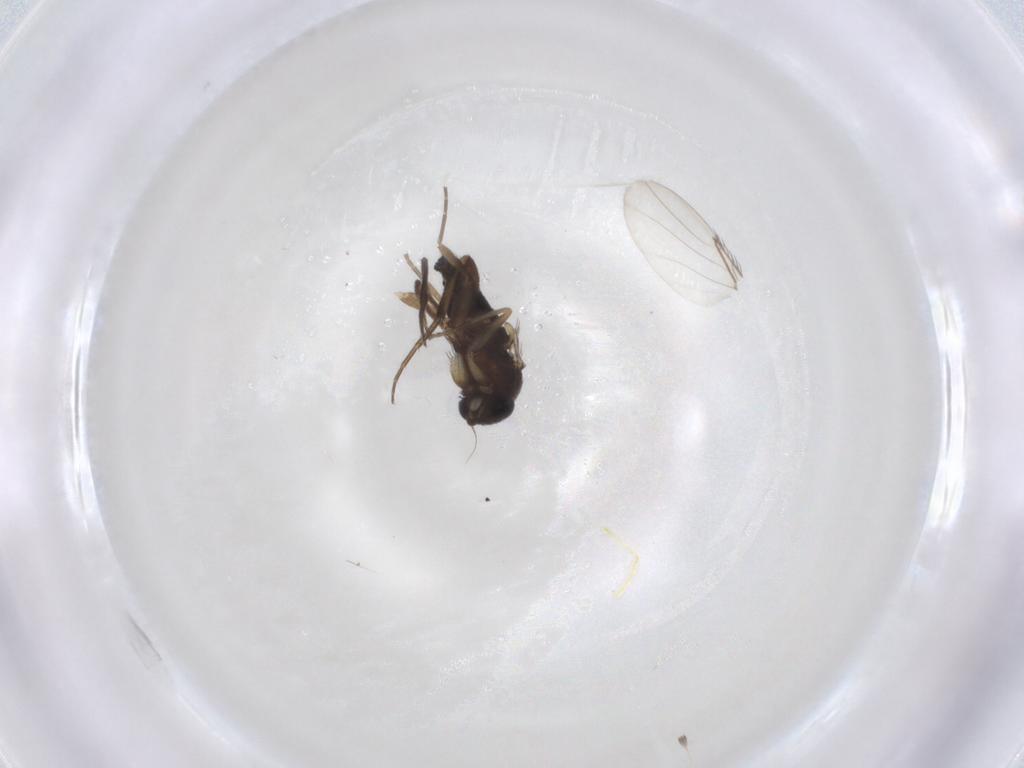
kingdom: Animalia
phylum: Arthropoda
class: Insecta
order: Diptera
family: Phoridae
